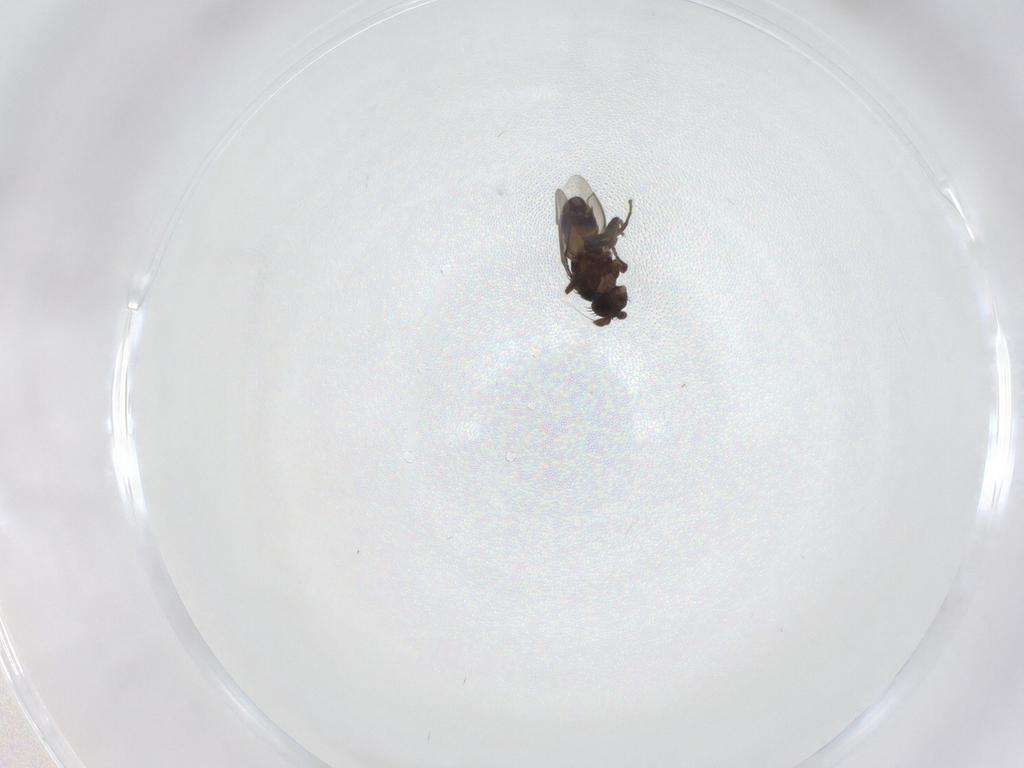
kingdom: Animalia
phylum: Arthropoda
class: Insecta
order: Diptera
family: Sphaeroceridae
